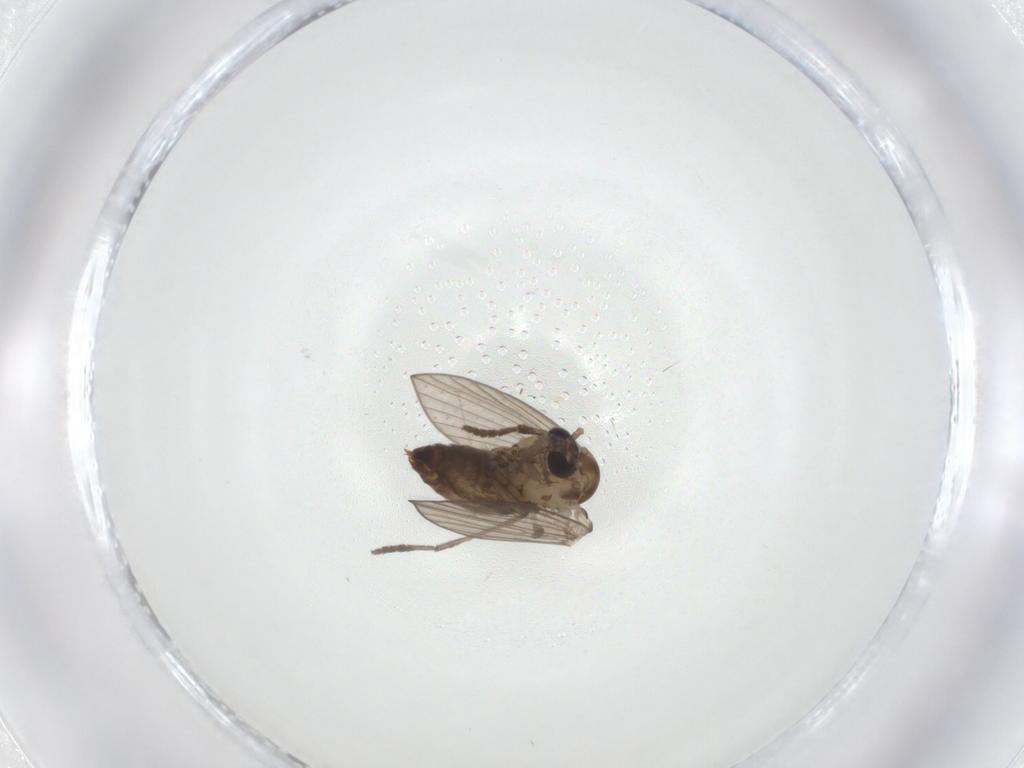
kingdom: Animalia
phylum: Arthropoda
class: Insecta
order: Diptera
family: Cecidomyiidae
